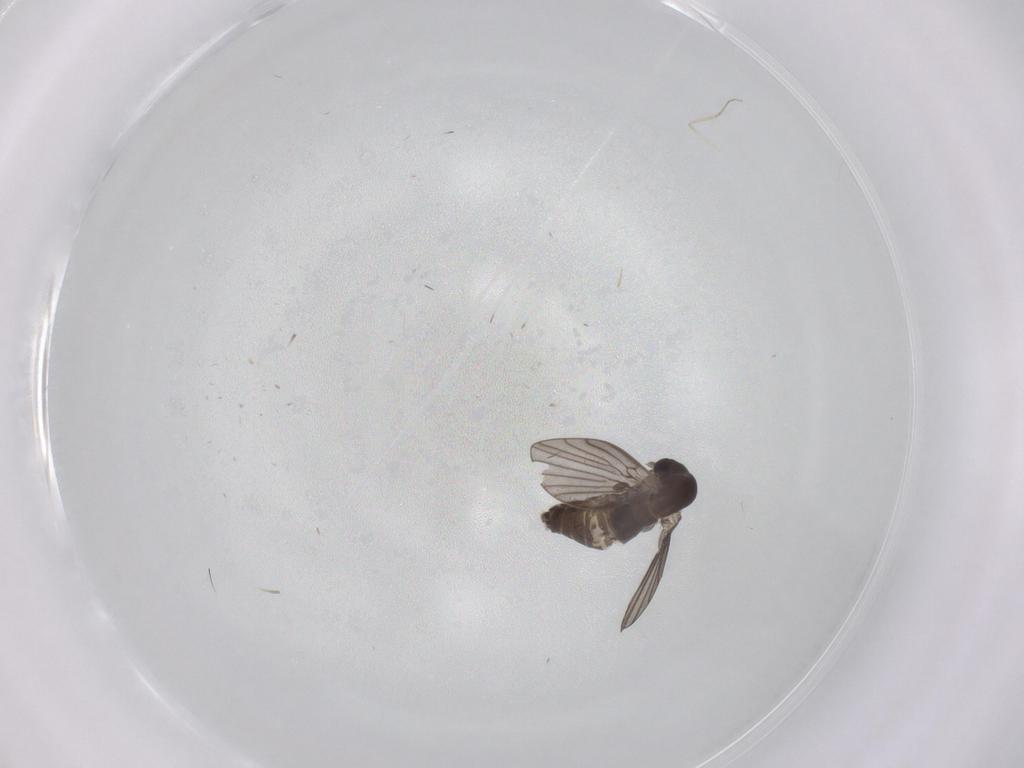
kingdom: Animalia
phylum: Arthropoda
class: Insecta
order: Diptera
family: Cecidomyiidae
